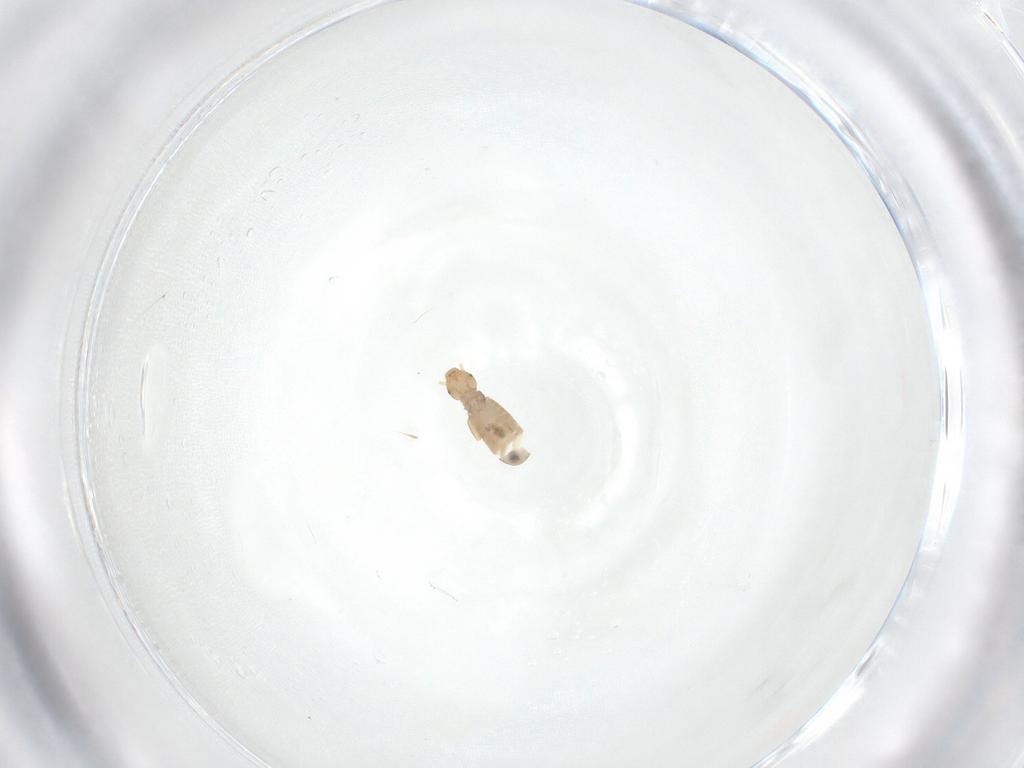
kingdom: Animalia
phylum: Arthropoda
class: Insecta
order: Psocodea
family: Liposcelididae
